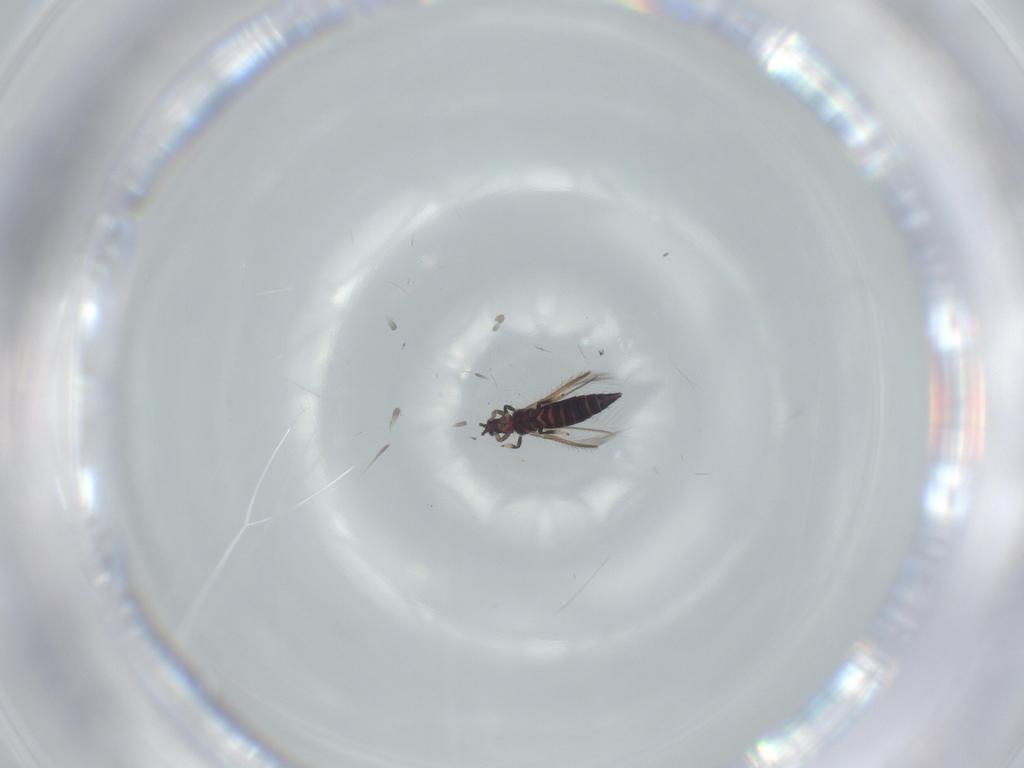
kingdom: Animalia
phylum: Arthropoda
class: Insecta
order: Thysanoptera
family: Thripidae
